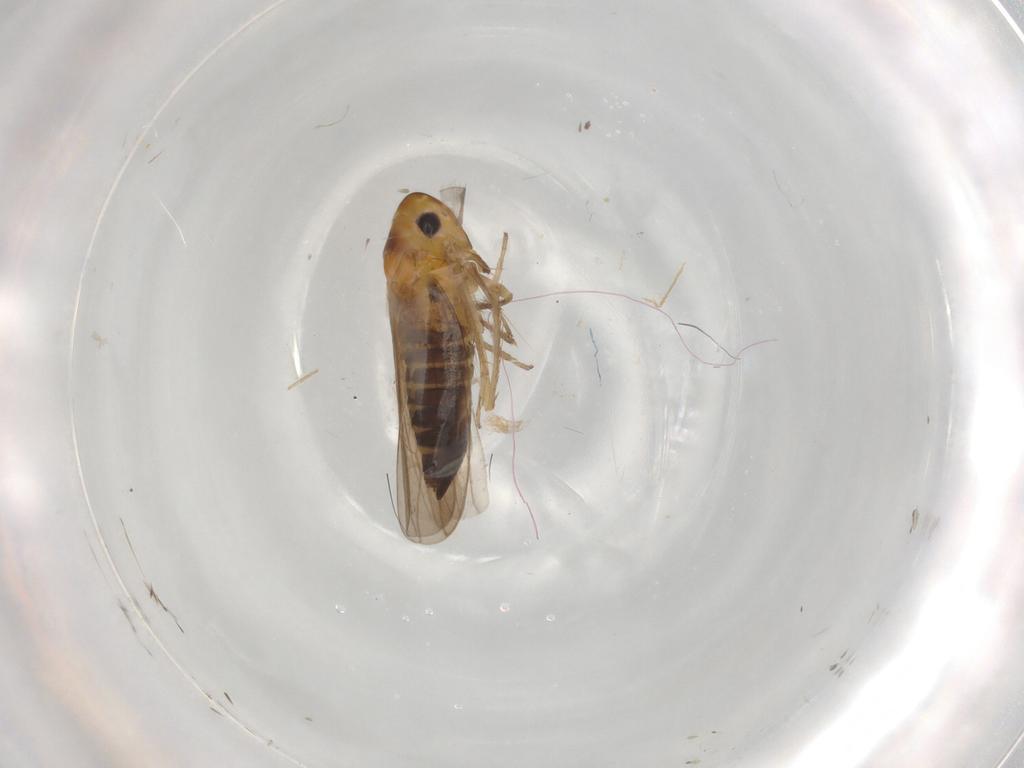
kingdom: Animalia
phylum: Arthropoda
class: Insecta
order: Hemiptera
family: Cicadellidae
